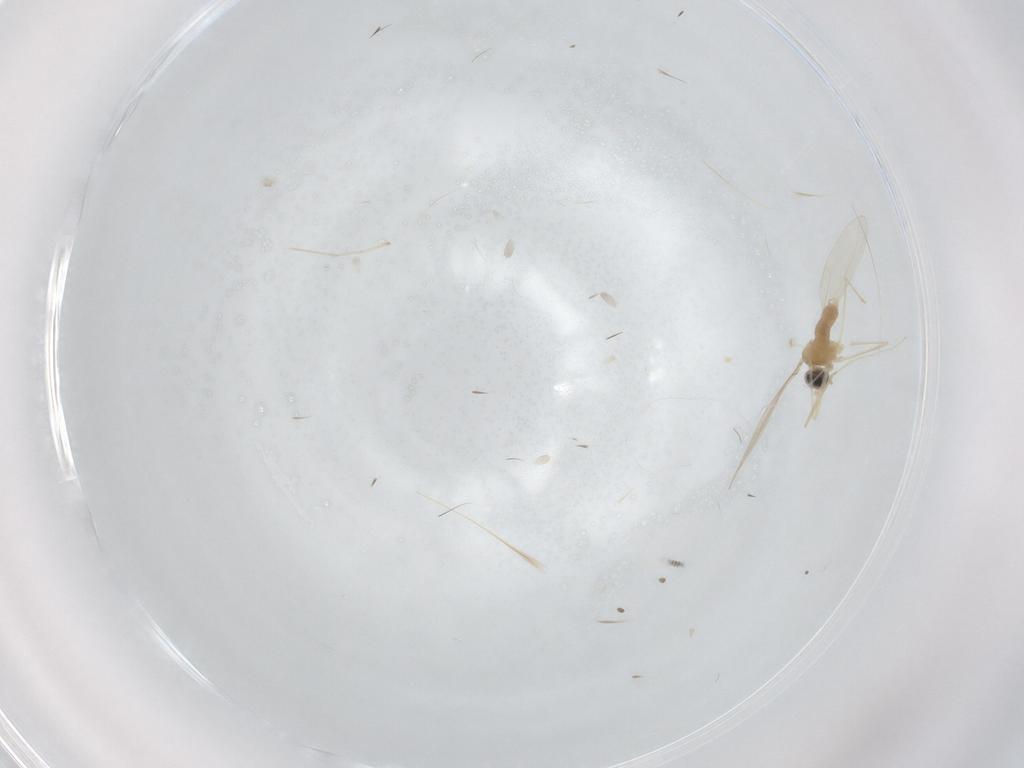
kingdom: Animalia
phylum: Arthropoda
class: Insecta
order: Diptera
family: Cecidomyiidae
